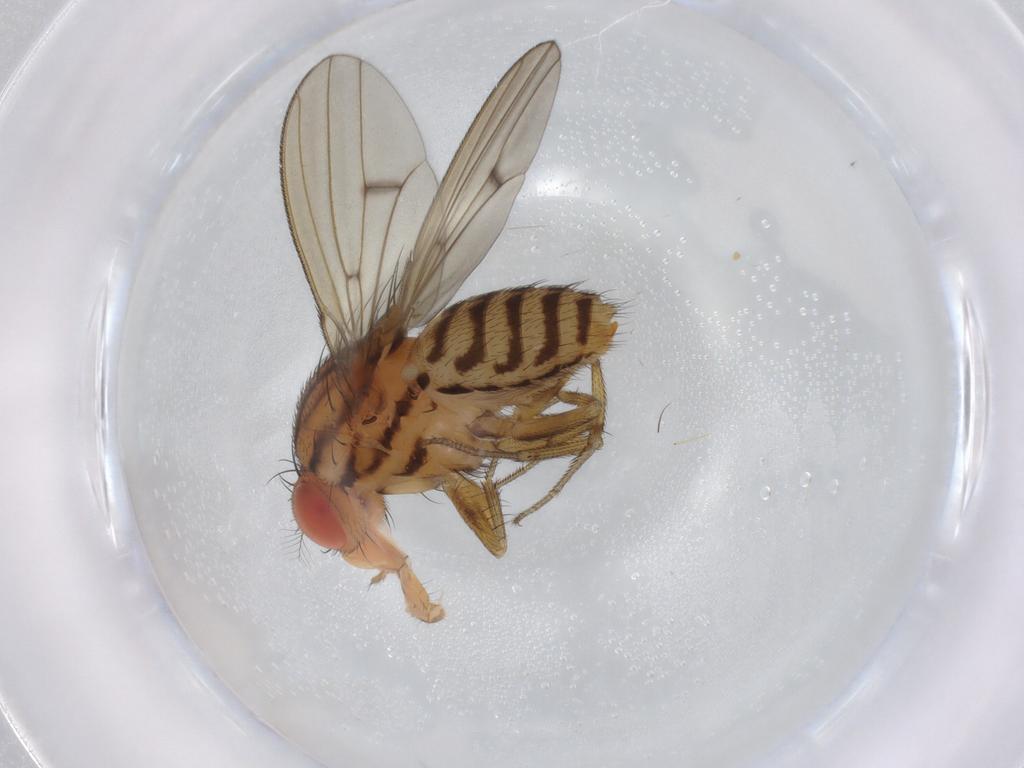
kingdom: Animalia
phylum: Arthropoda
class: Insecta
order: Diptera
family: Drosophilidae
